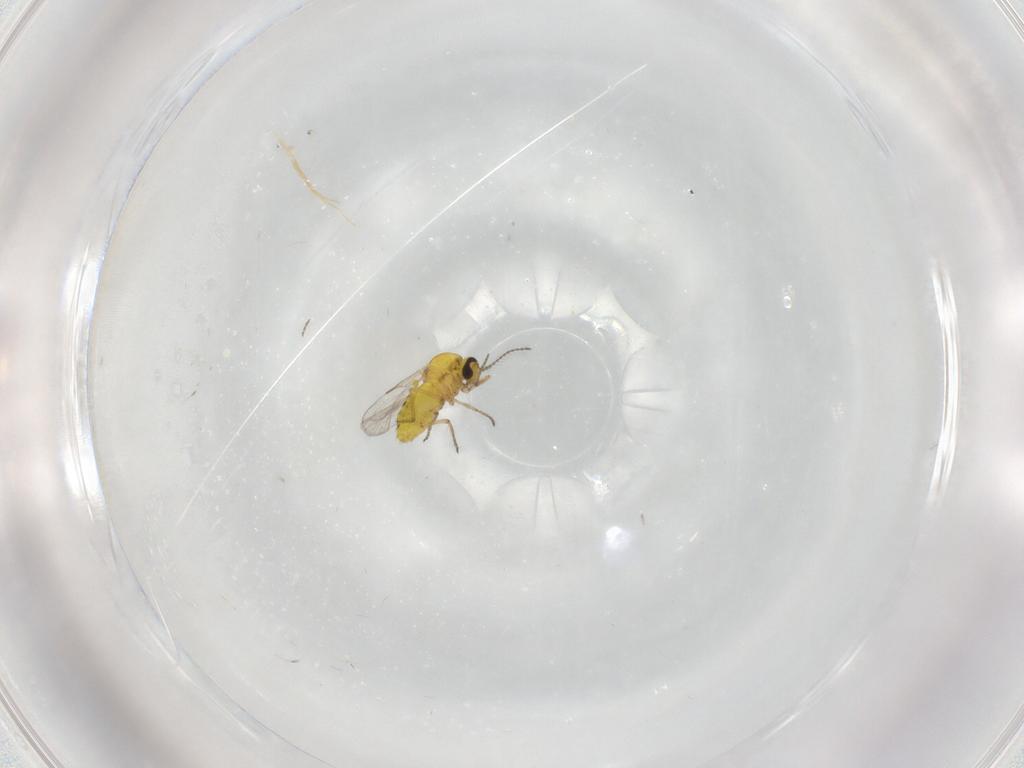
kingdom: Animalia
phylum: Arthropoda
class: Insecta
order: Diptera
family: Ceratopogonidae
